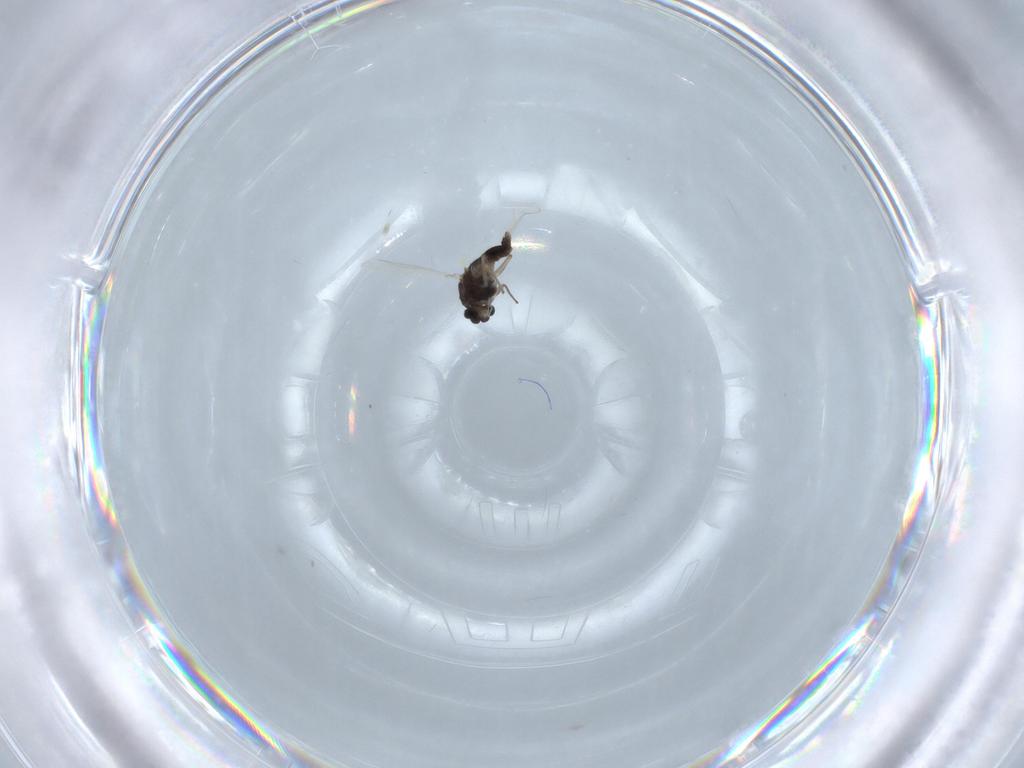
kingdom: Animalia
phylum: Arthropoda
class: Insecta
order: Diptera
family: Chironomidae
